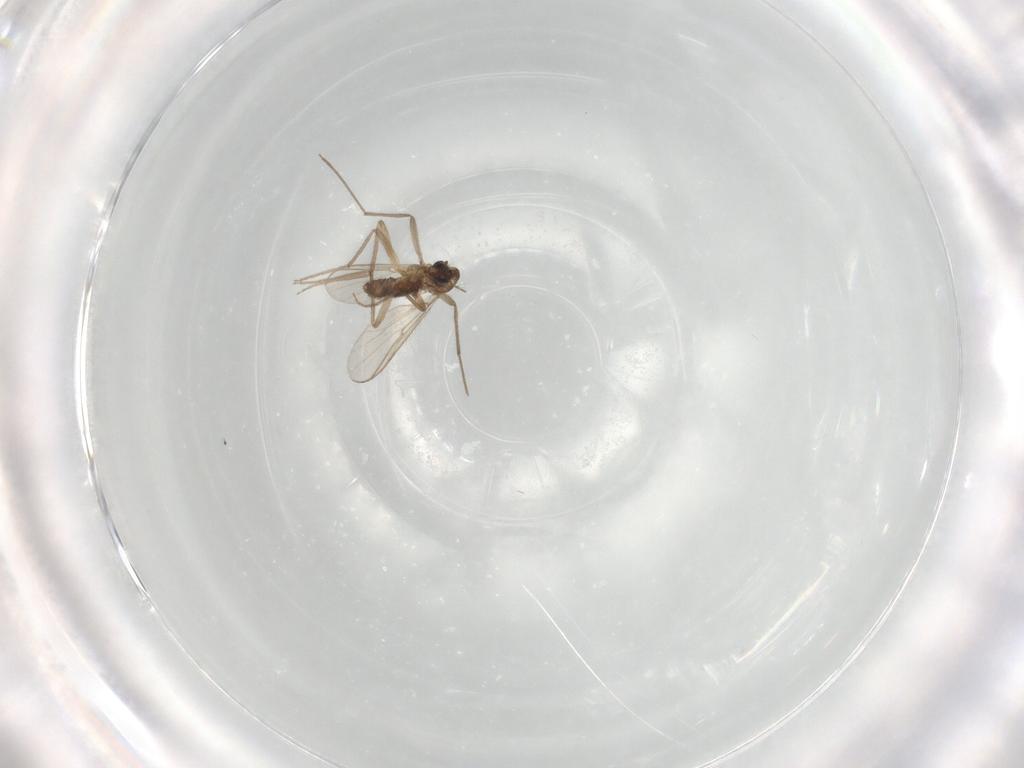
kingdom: Animalia
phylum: Arthropoda
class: Insecta
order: Diptera
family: Chironomidae
